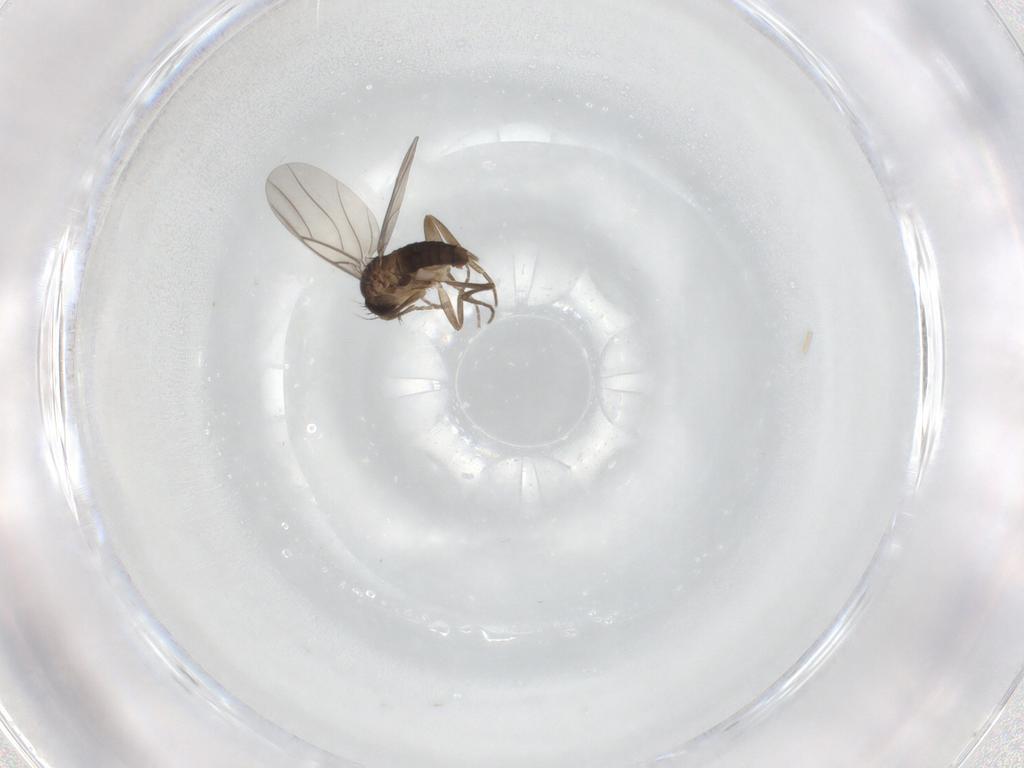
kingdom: Animalia
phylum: Arthropoda
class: Insecta
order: Diptera
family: Phoridae
